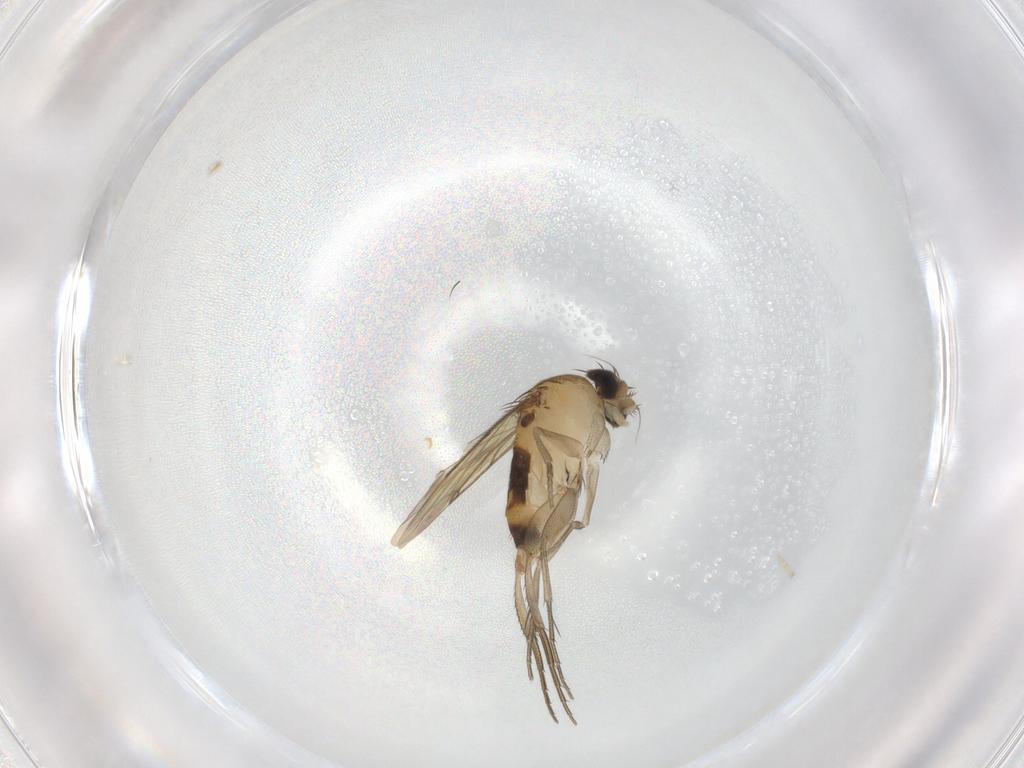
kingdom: Animalia
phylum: Arthropoda
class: Insecta
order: Diptera
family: Phoridae
